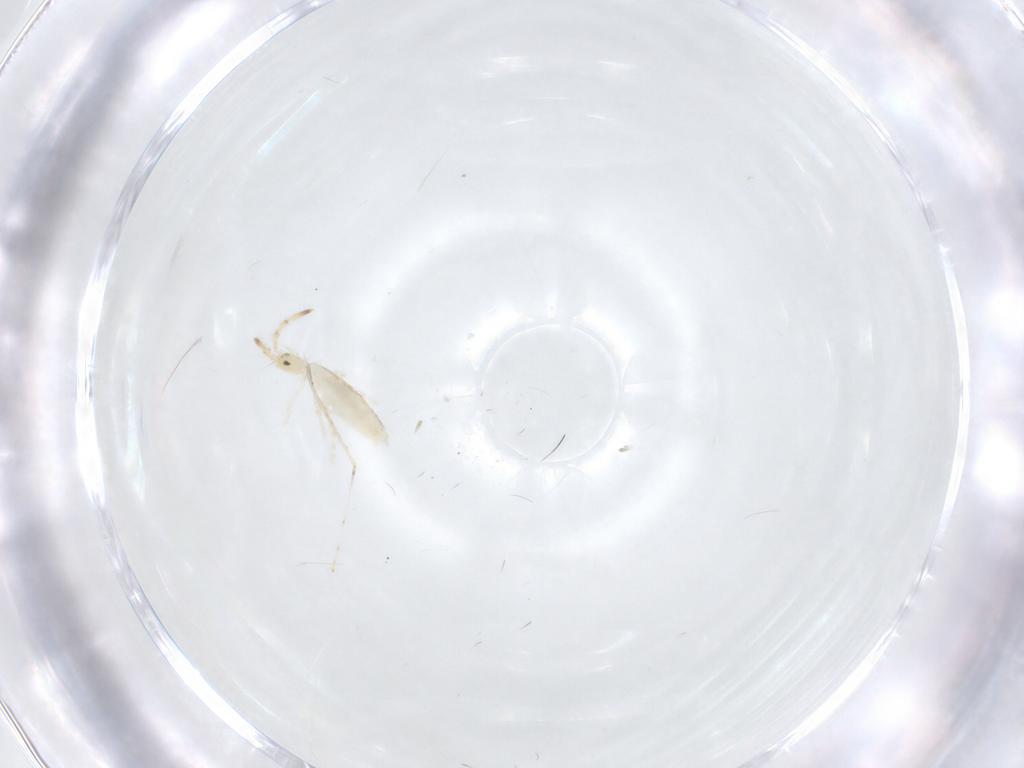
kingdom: Animalia
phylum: Arthropoda
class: Collembola
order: Entomobryomorpha
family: Entomobryidae
